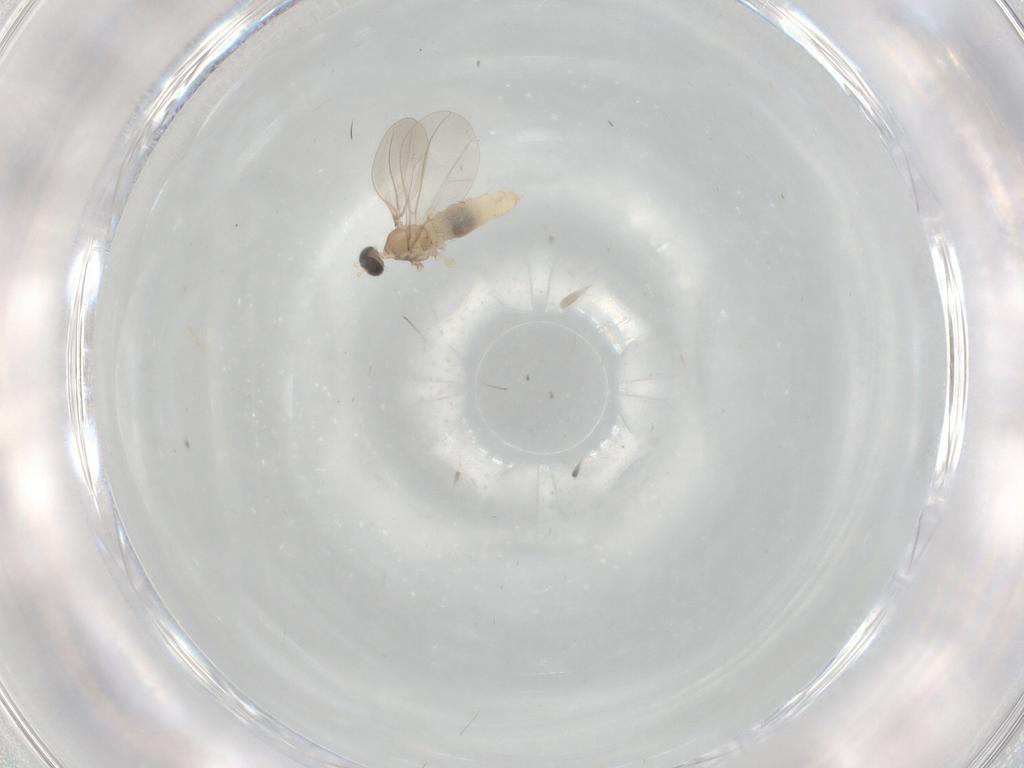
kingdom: Animalia
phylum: Arthropoda
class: Insecta
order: Diptera
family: Cecidomyiidae
